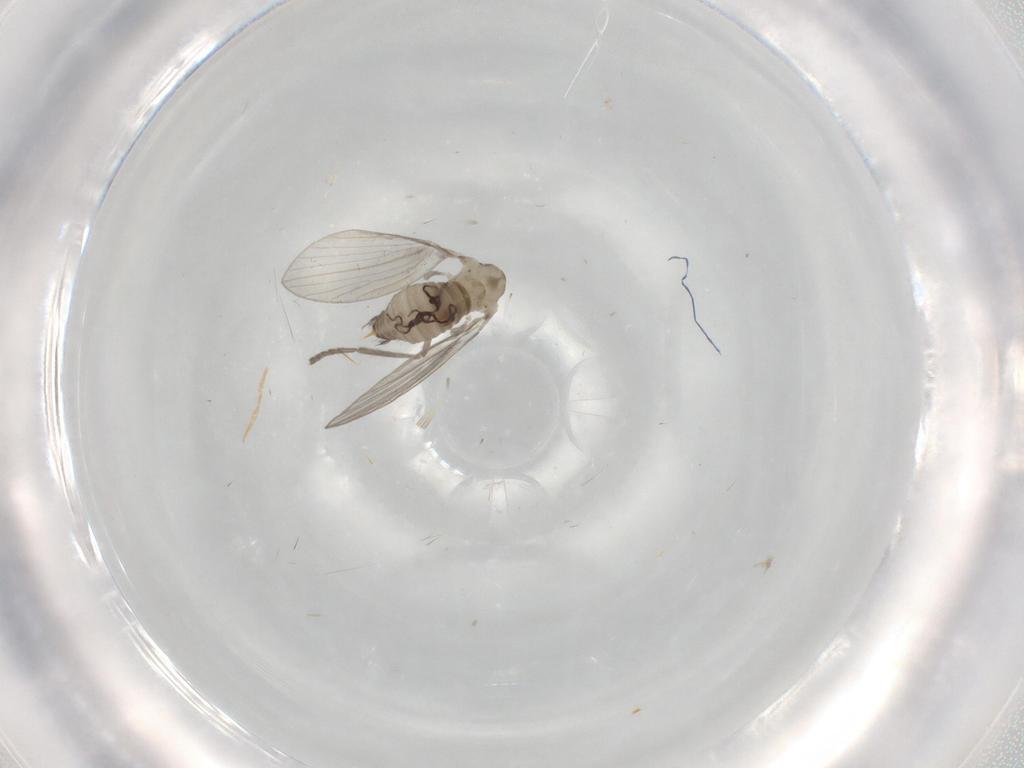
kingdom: Animalia
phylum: Arthropoda
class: Insecta
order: Diptera
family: Psychodidae
